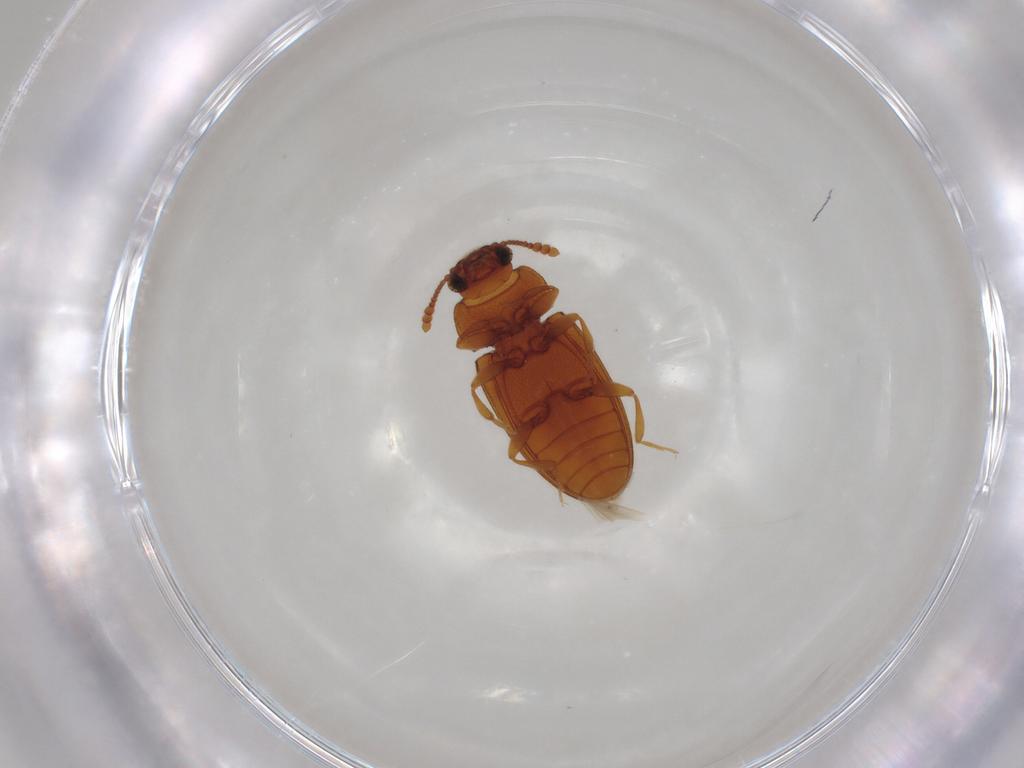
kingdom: Animalia
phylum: Arthropoda
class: Insecta
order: Coleoptera
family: Erotylidae
